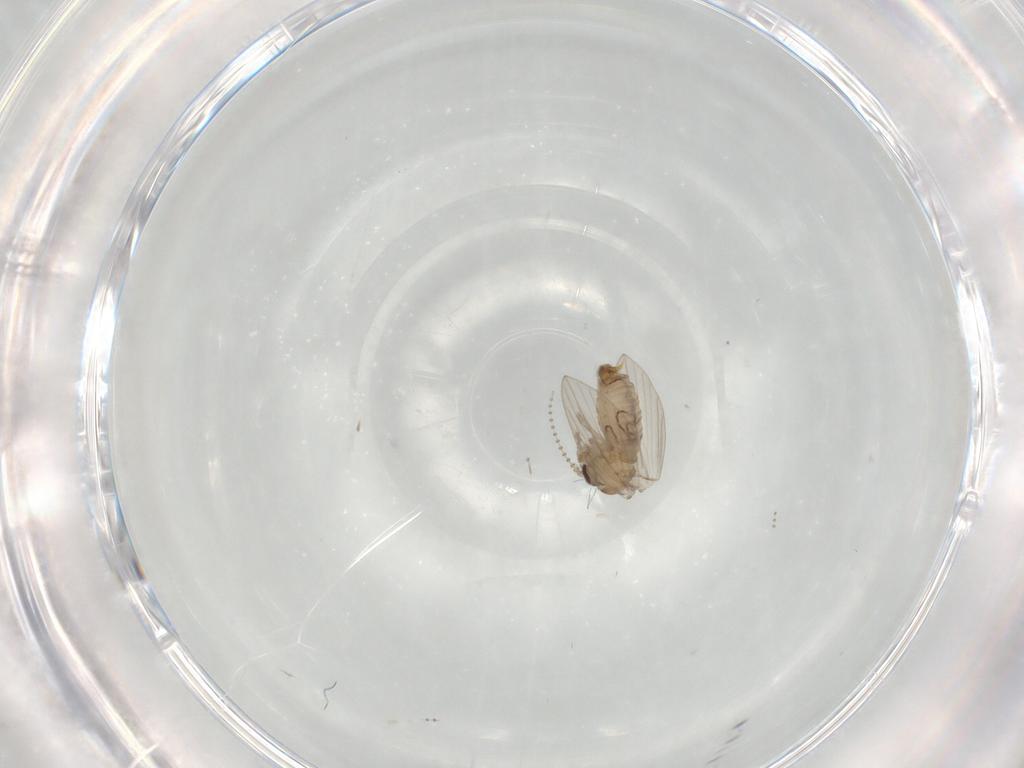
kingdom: Animalia
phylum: Arthropoda
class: Insecta
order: Diptera
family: Psychodidae
